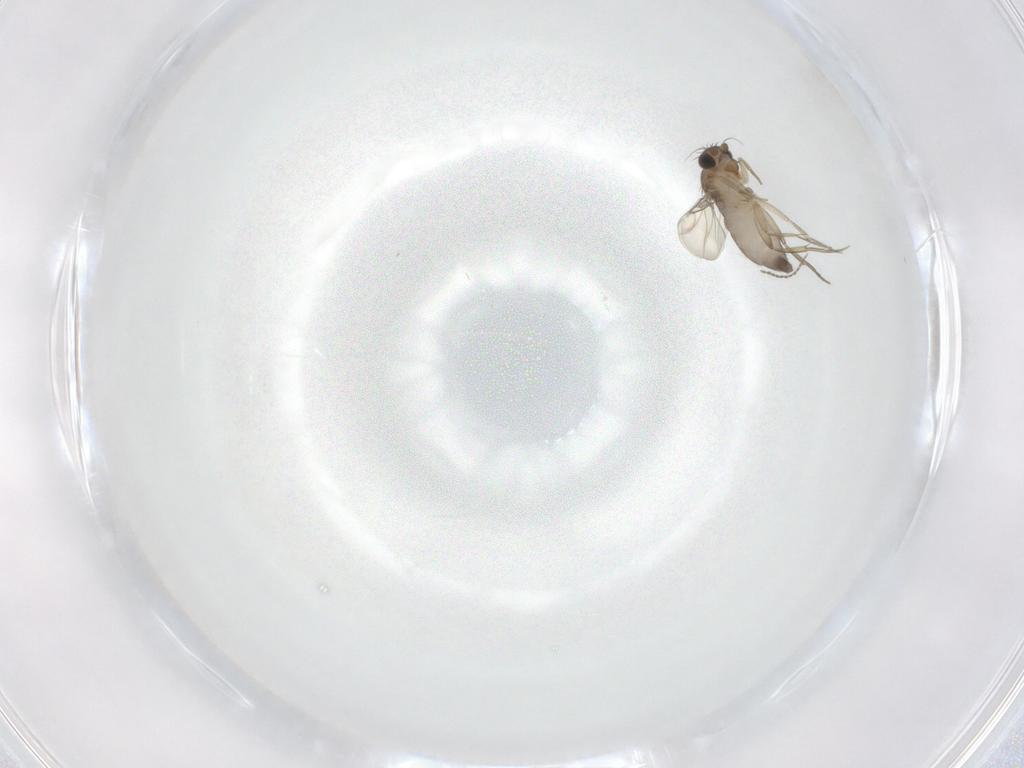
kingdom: Animalia
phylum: Arthropoda
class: Insecta
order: Diptera
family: Phoridae
